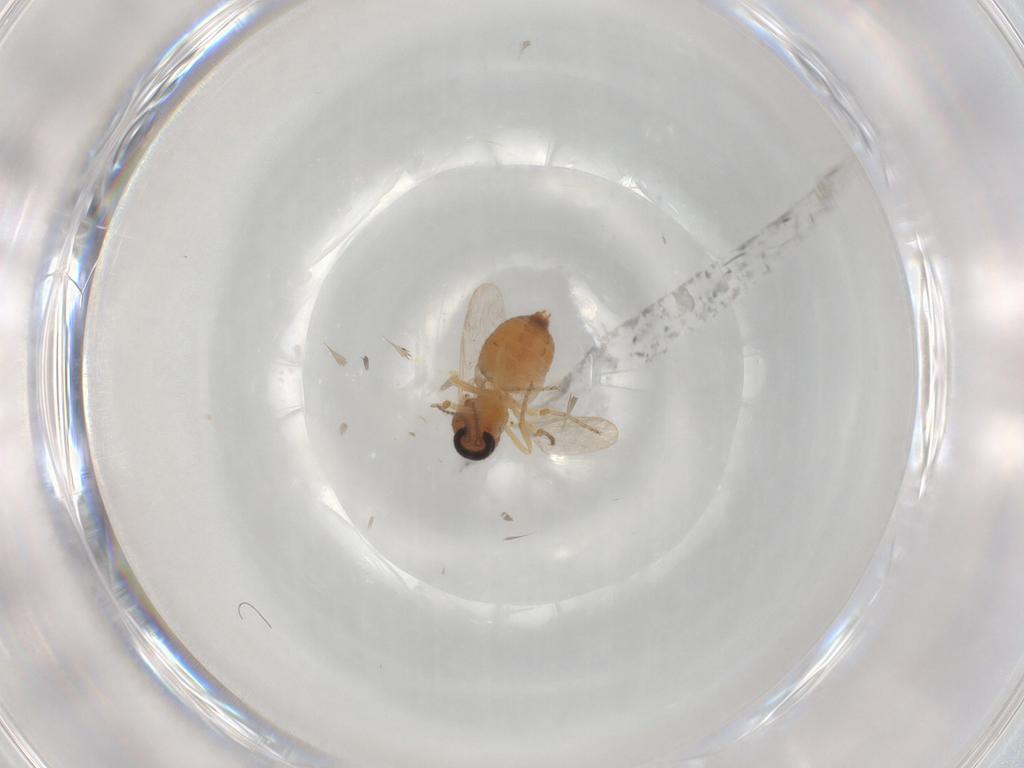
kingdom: Animalia
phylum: Arthropoda
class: Insecta
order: Diptera
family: Ceratopogonidae
